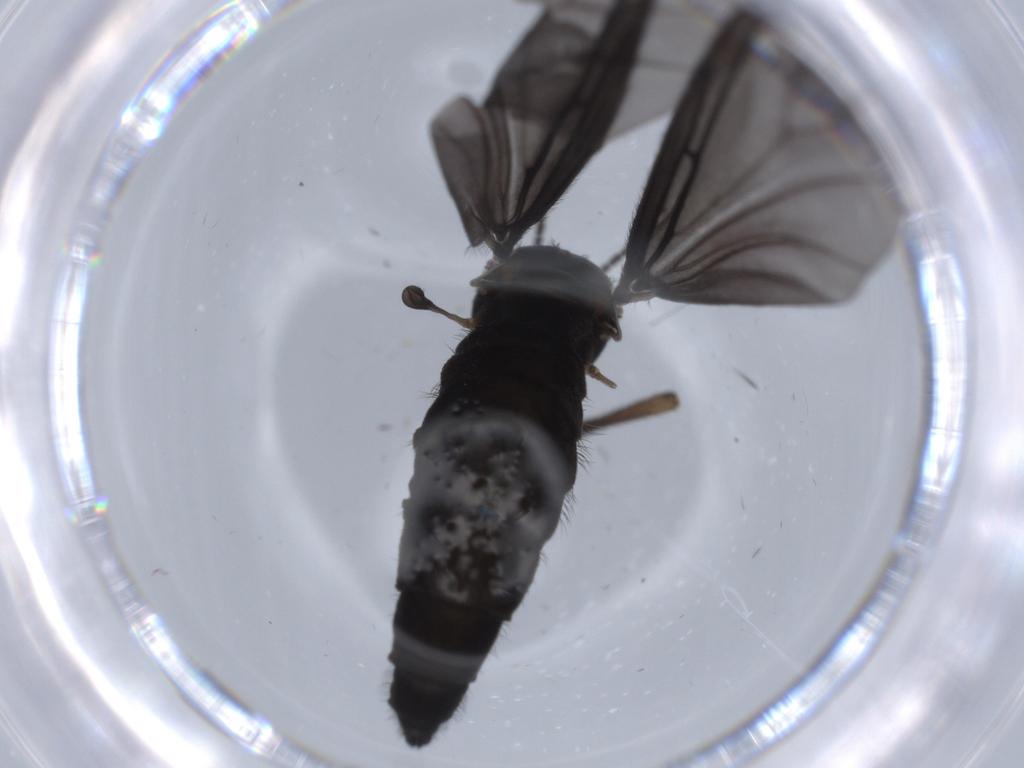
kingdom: Animalia
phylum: Arthropoda
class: Insecta
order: Diptera
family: Sciaridae
